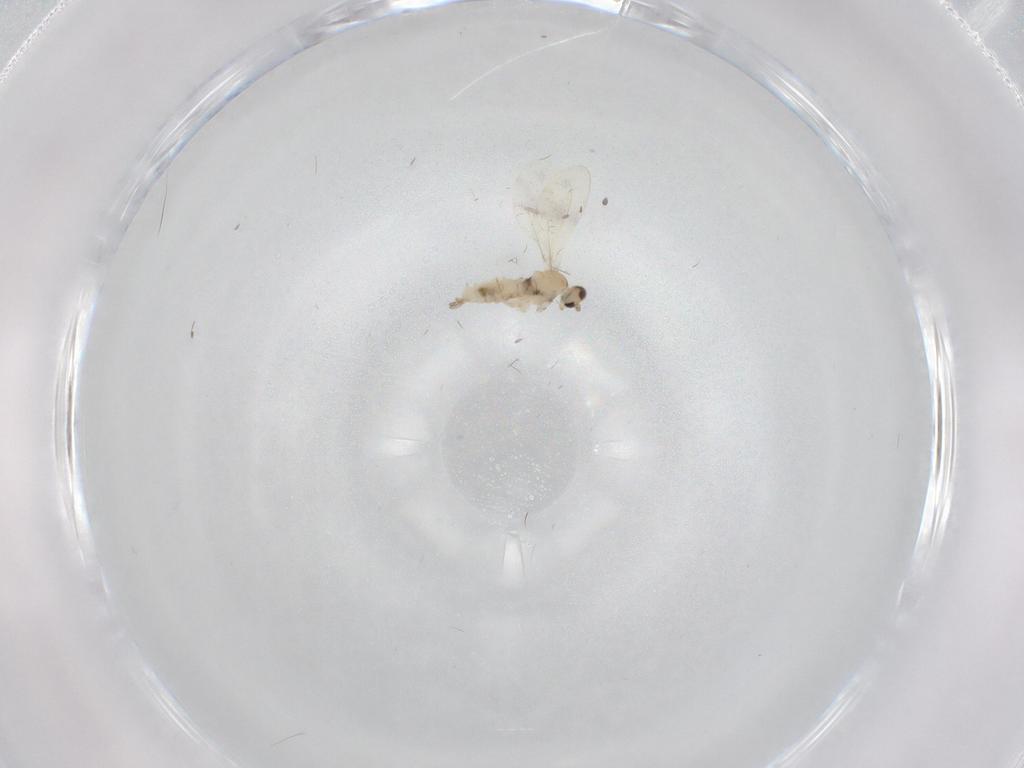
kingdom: Animalia
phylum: Arthropoda
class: Insecta
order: Diptera
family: Cecidomyiidae
